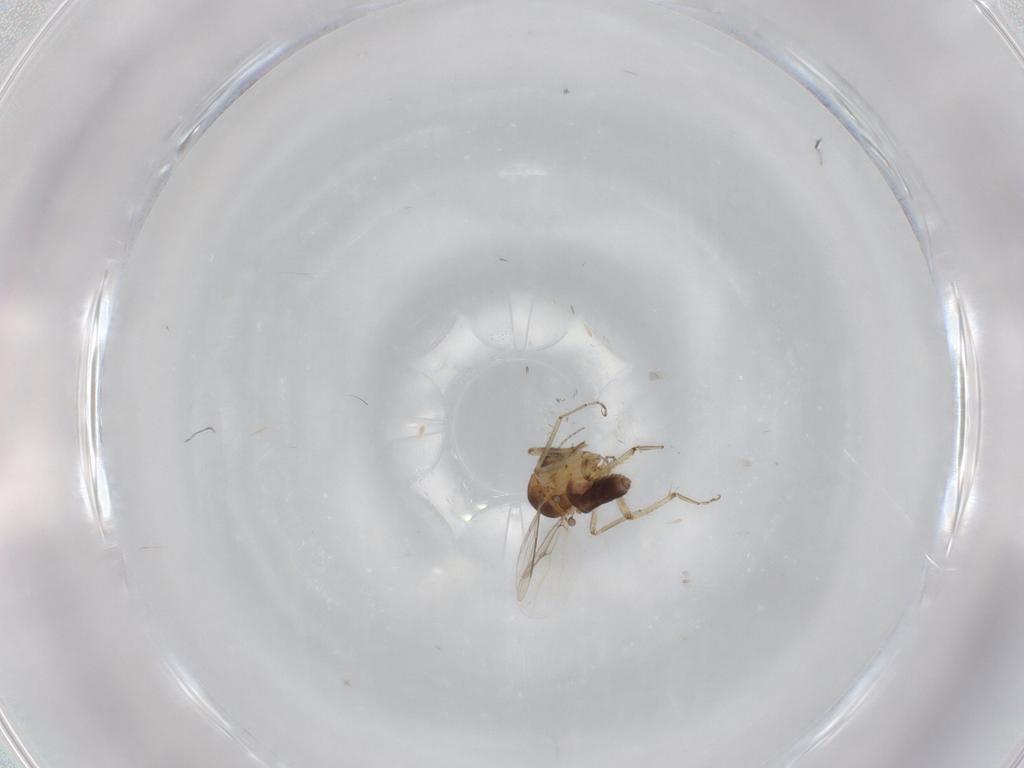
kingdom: Animalia
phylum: Arthropoda
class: Insecta
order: Diptera
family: Ceratopogonidae
